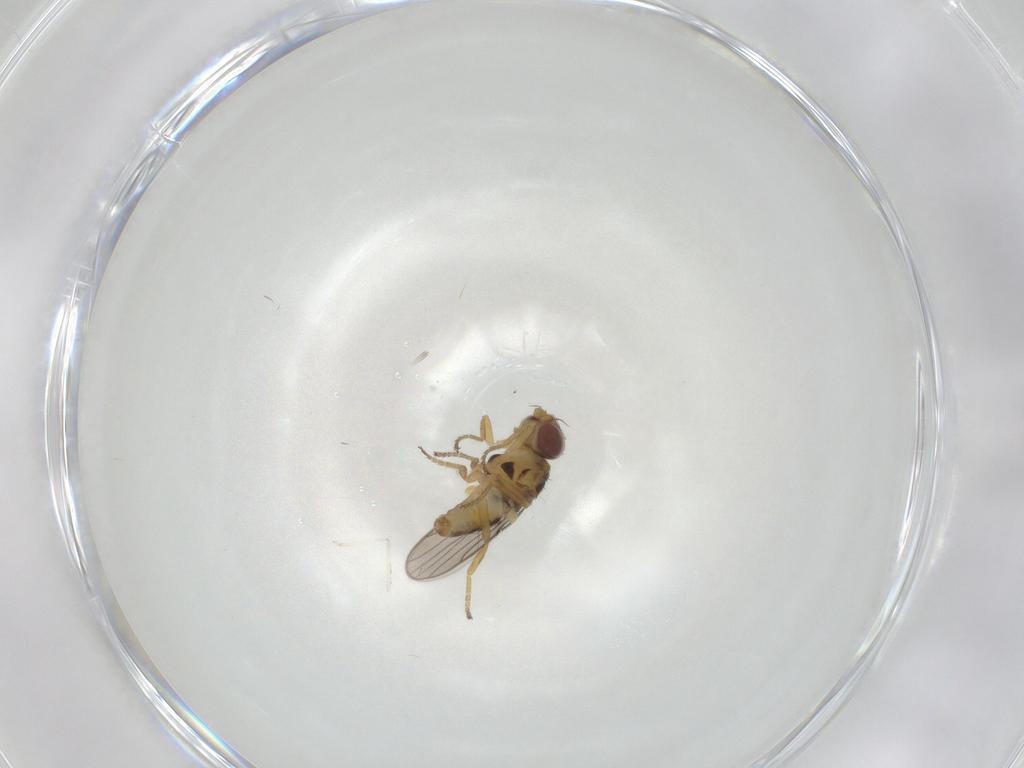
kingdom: Animalia
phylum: Arthropoda
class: Insecta
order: Diptera
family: Chloropidae
